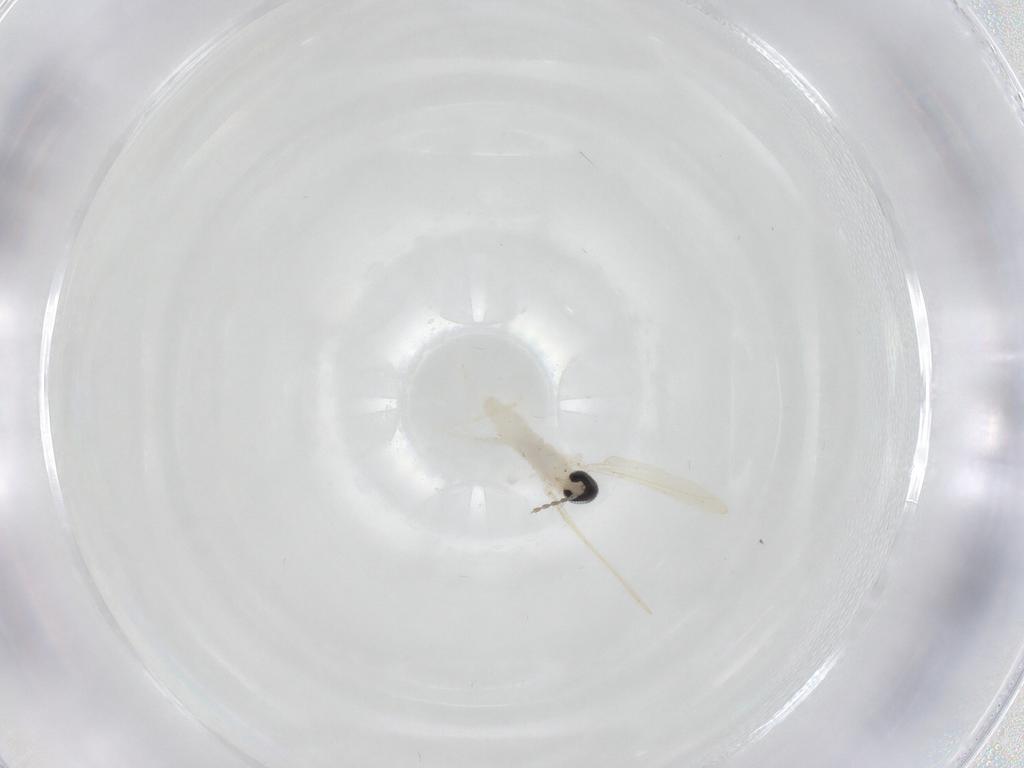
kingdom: Animalia
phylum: Arthropoda
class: Insecta
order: Diptera
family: Cecidomyiidae
